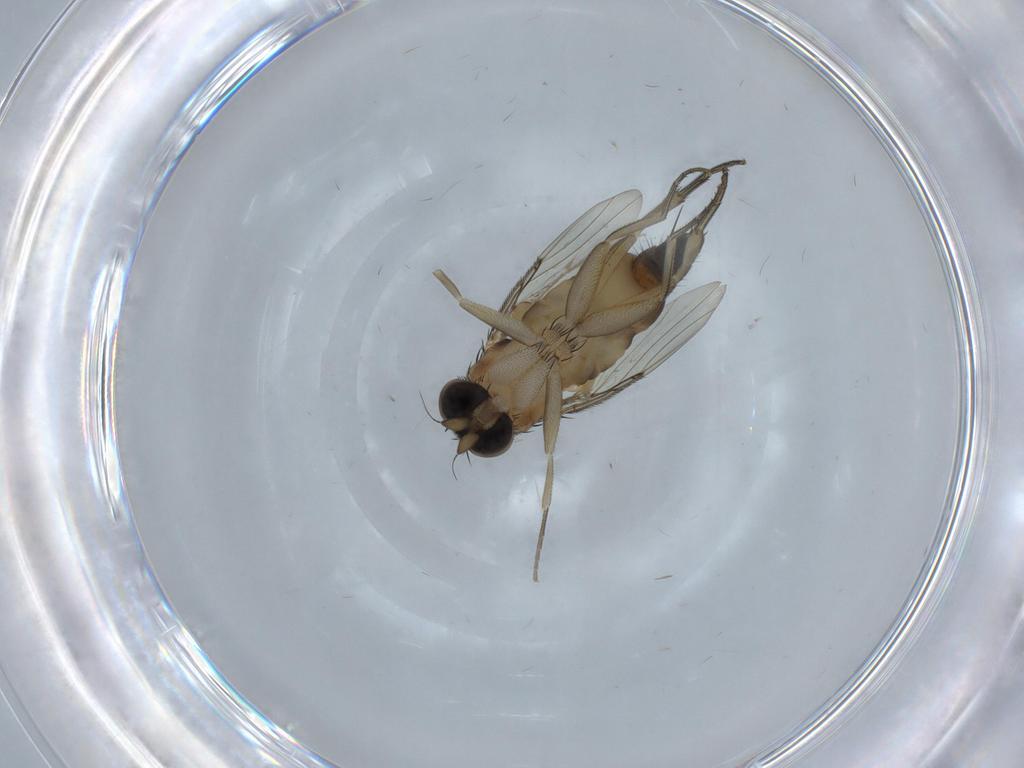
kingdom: Animalia
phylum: Arthropoda
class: Insecta
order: Diptera
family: Phoridae
